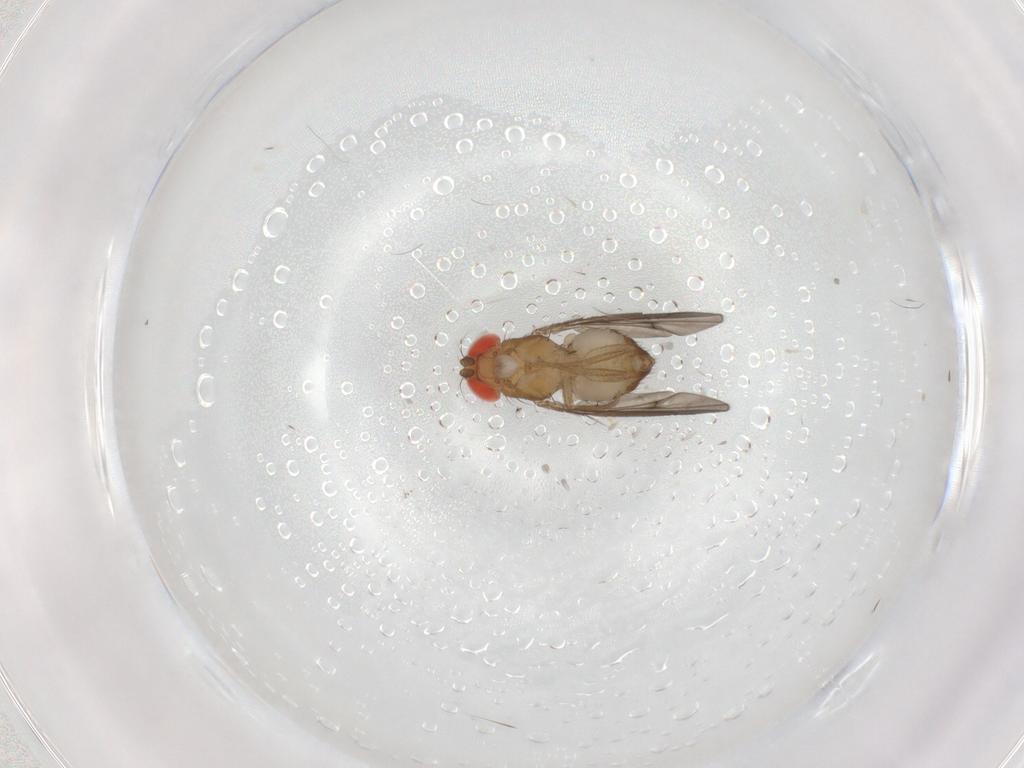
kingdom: Animalia
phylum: Arthropoda
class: Insecta
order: Diptera
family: Drosophilidae
